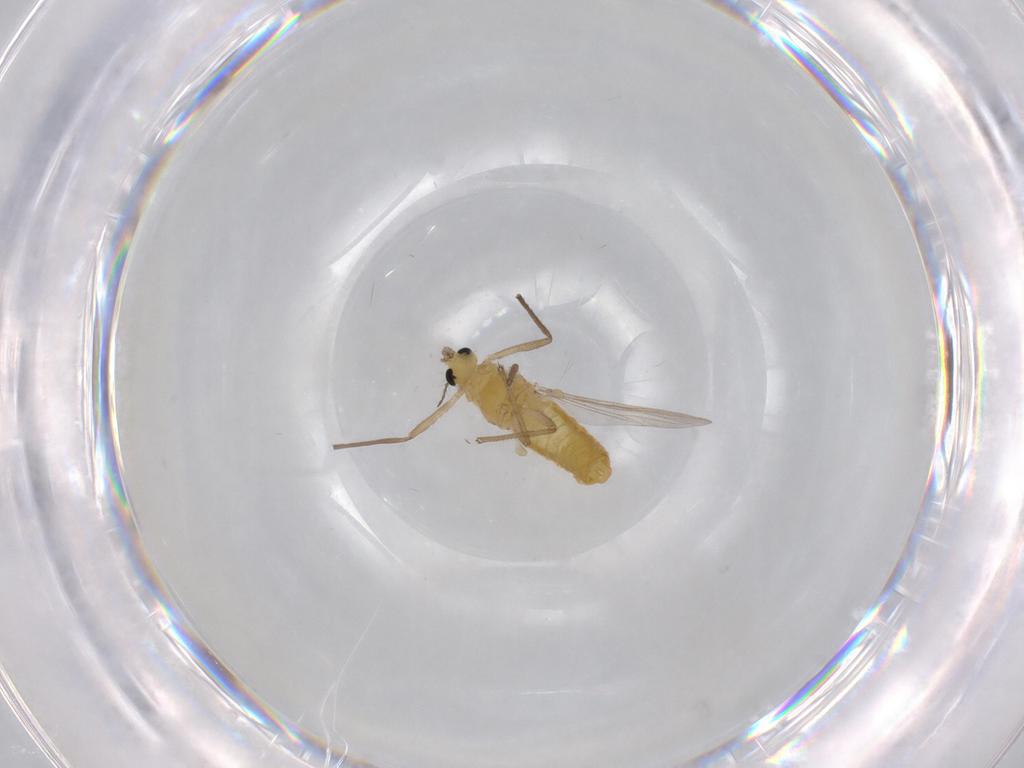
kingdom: Animalia
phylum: Arthropoda
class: Insecta
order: Diptera
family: Chironomidae
